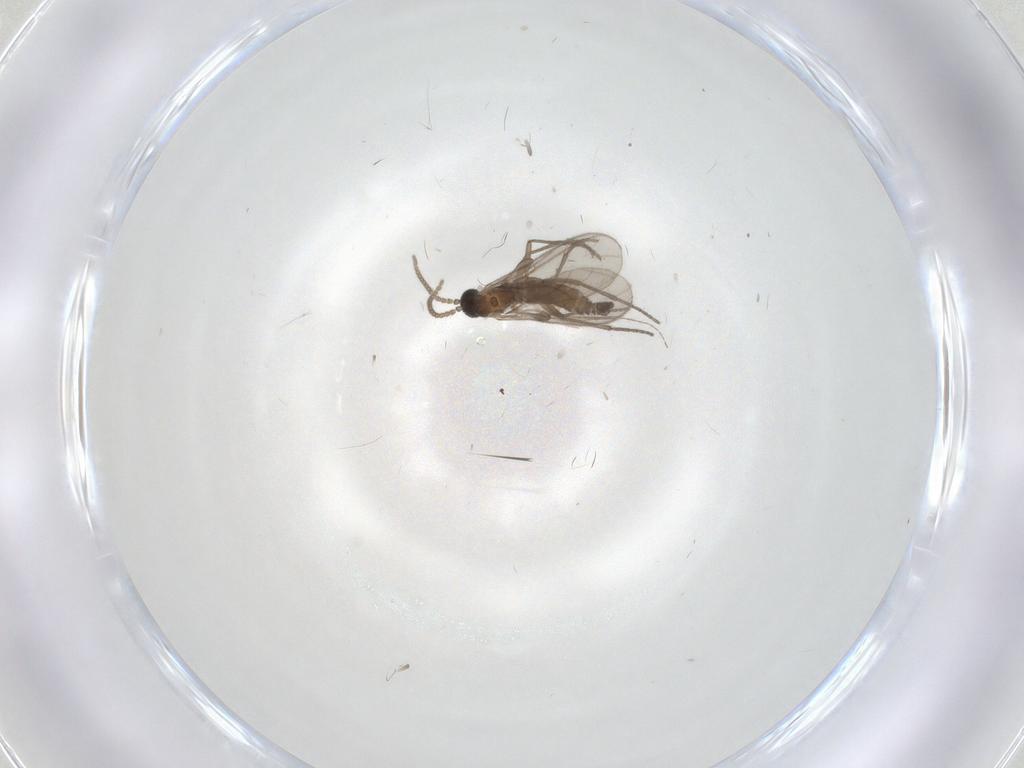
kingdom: Animalia
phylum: Arthropoda
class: Insecta
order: Diptera
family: Sciaridae
